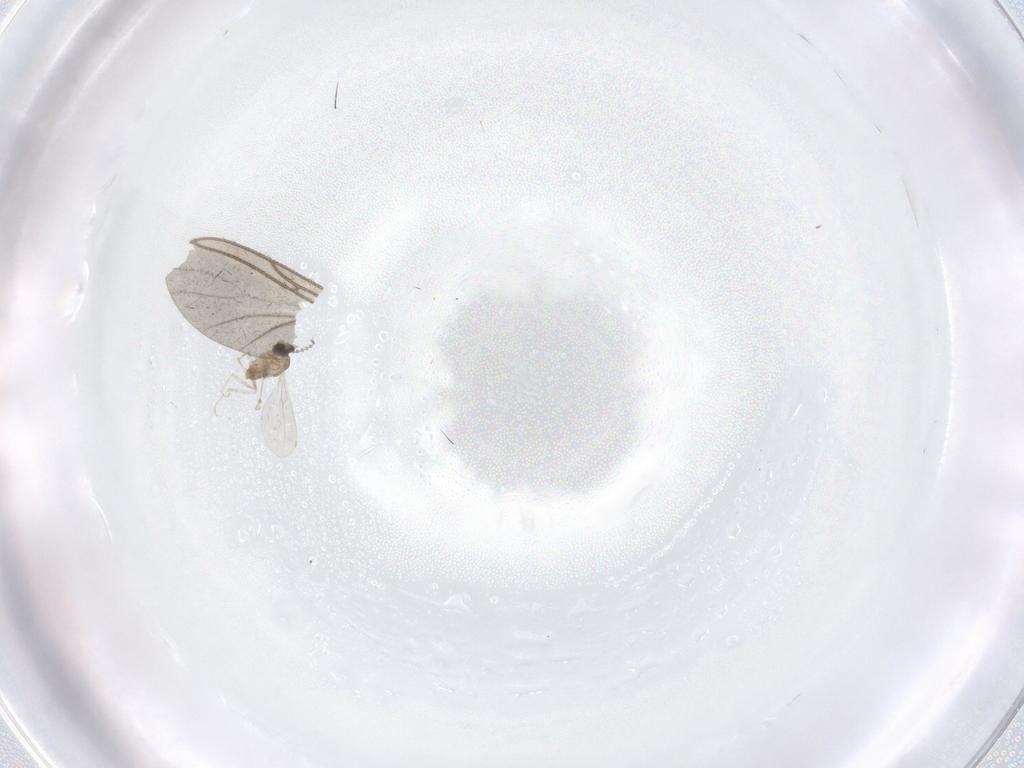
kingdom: Animalia
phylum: Arthropoda
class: Insecta
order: Diptera
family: Cecidomyiidae
